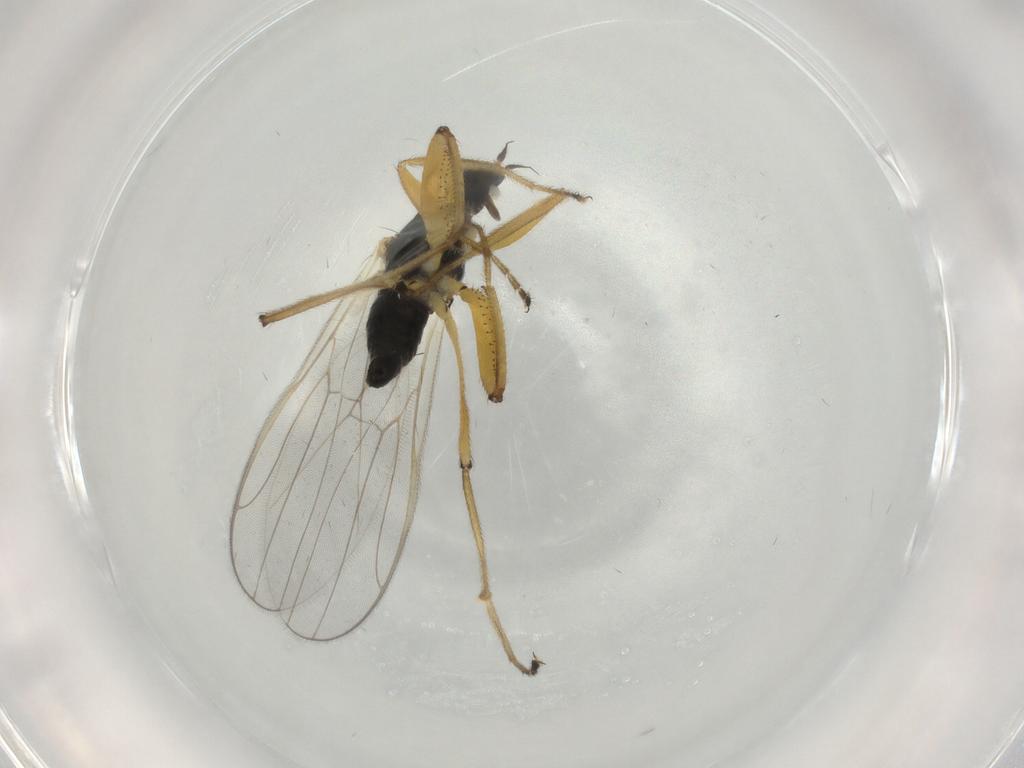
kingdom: Animalia
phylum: Arthropoda
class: Insecta
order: Diptera
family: Hybotidae
